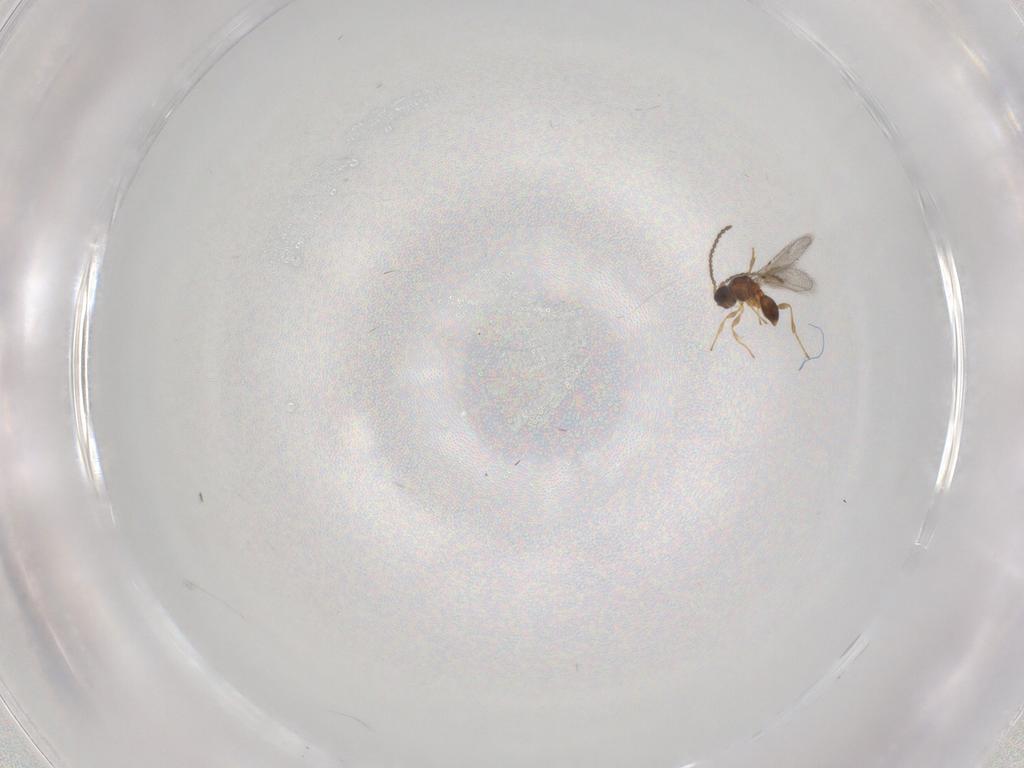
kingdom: Animalia
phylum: Arthropoda
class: Insecta
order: Hymenoptera
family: Diapriidae
